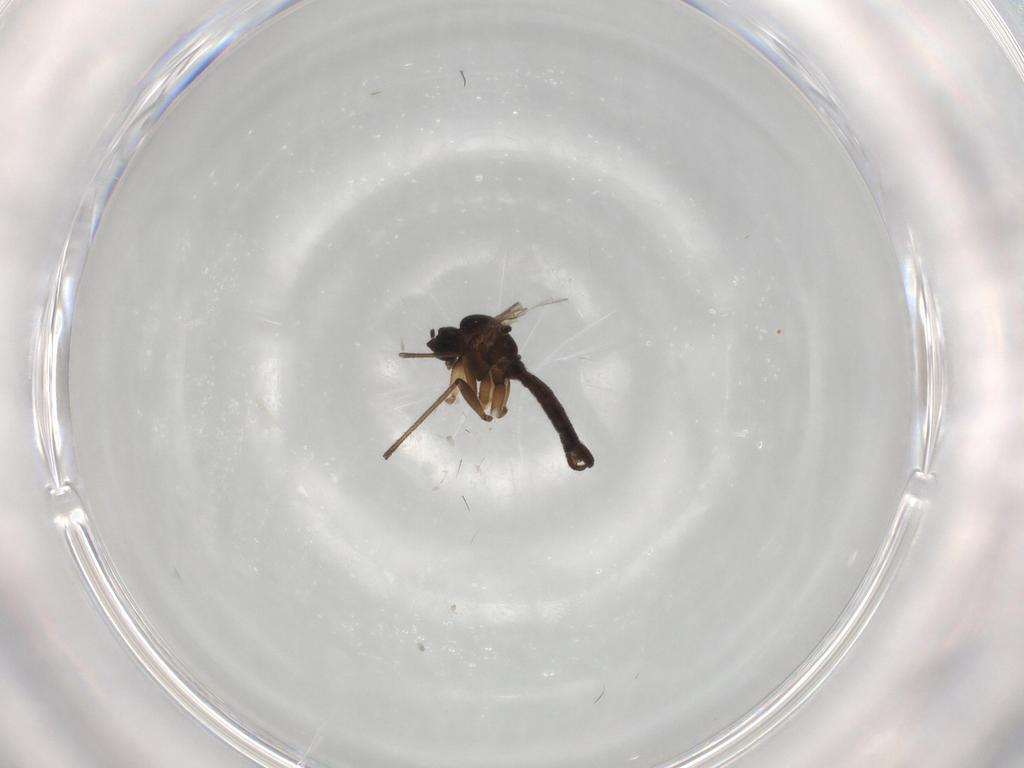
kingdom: Animalia
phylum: Arthropoda
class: Insecta
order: Diptera
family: Sciaridae
